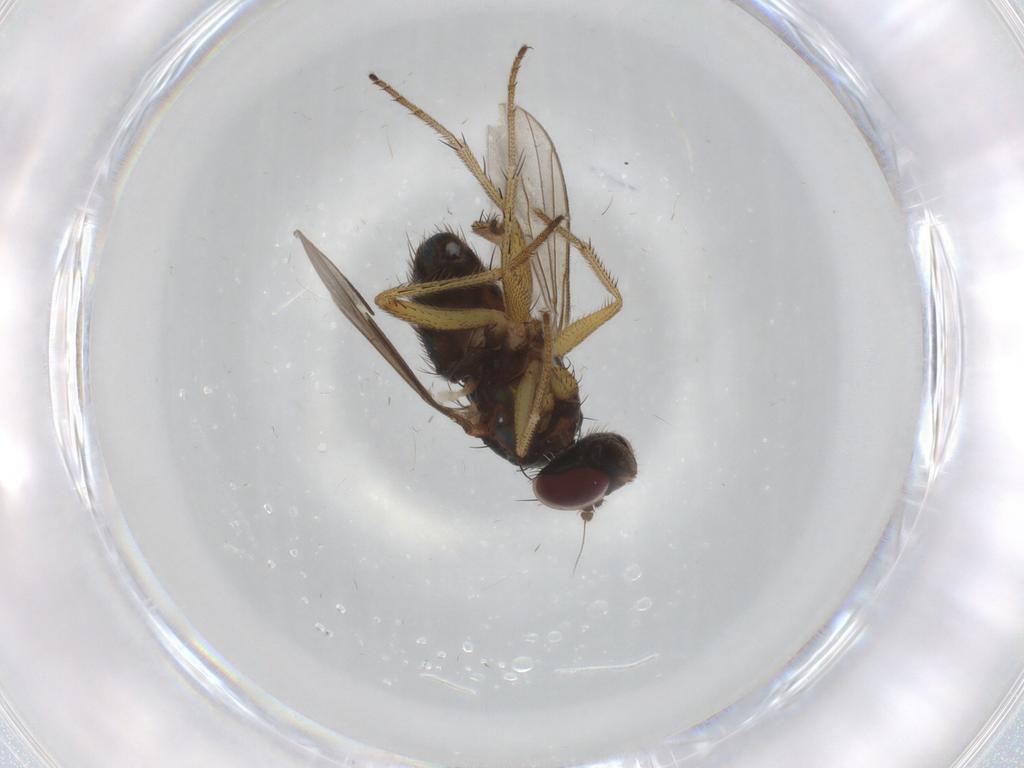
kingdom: Animalia
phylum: Arthropoda
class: Insecta
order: Diptera
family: Dolichopodidae
